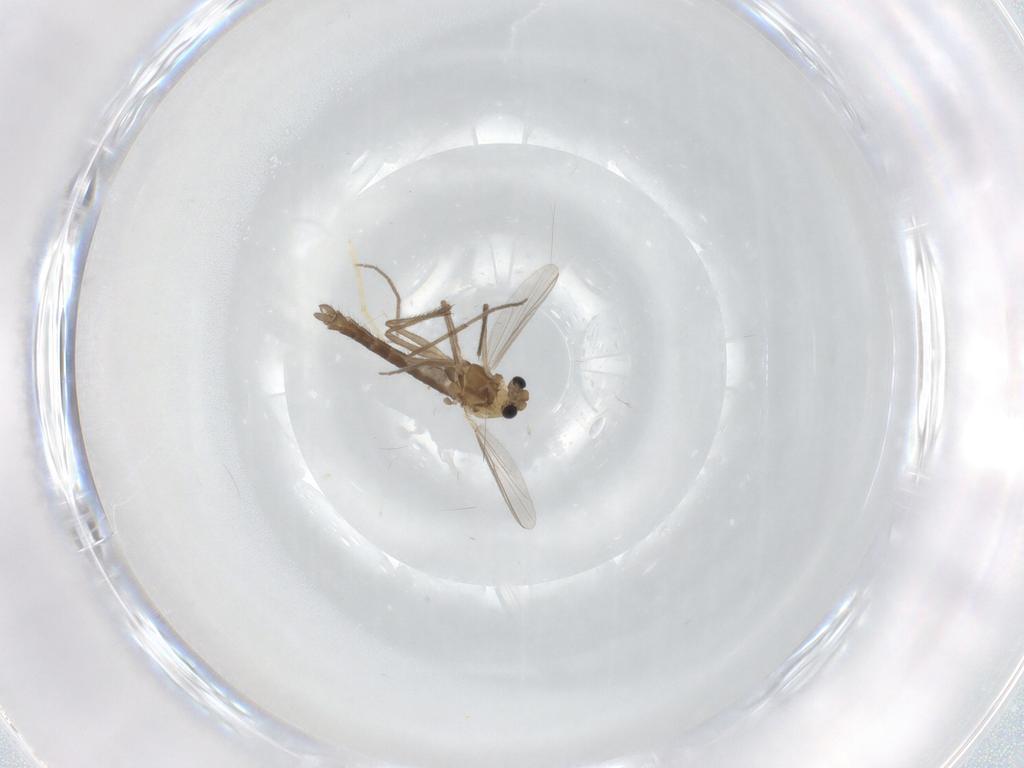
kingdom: Animalia
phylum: Arthropoda
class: Insecta
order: Diptera
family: Chironomidae
